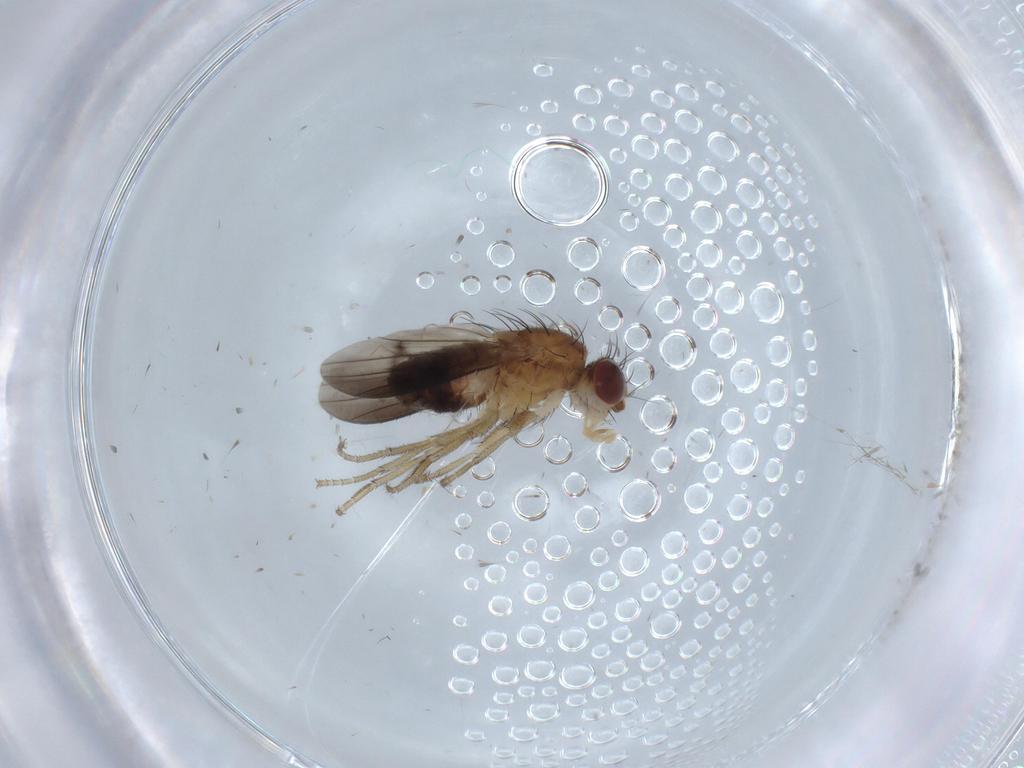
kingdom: Animalia
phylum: Arthropoda
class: Insecta
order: Diptera
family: Heleomyzidae
